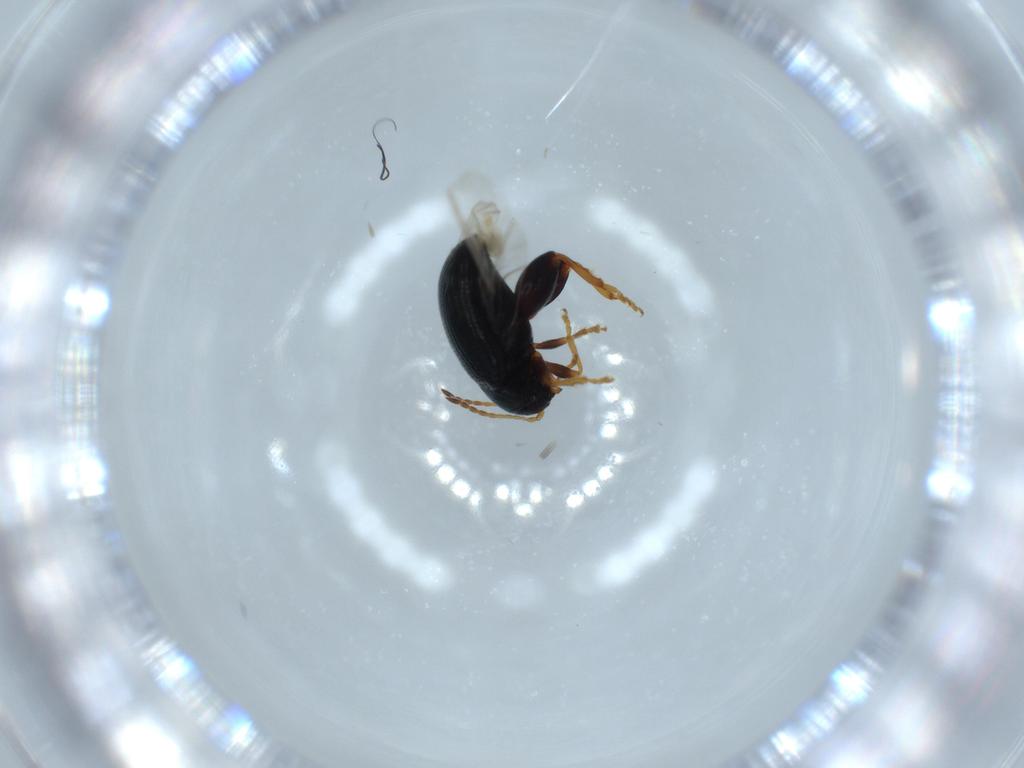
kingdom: Animalia
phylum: Arthropoda
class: Insecta
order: Coleoptera
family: Chrysomelidae
